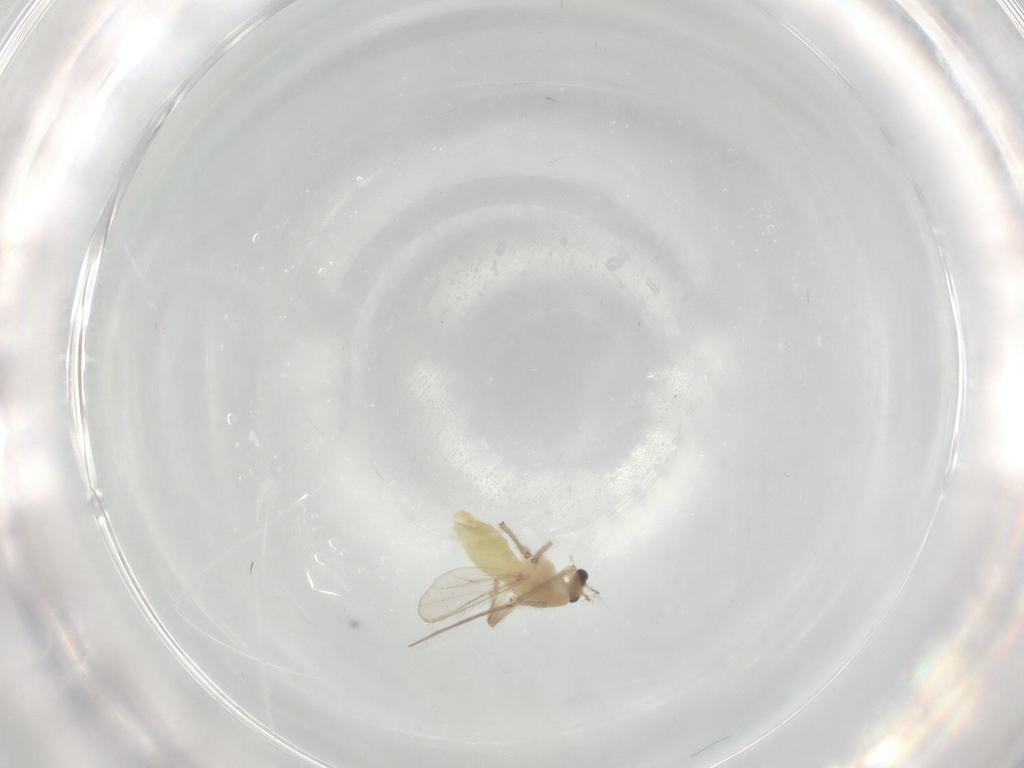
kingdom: Animalia
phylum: Arthropoda
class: Insecta
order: Diptera
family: Chironomidae
